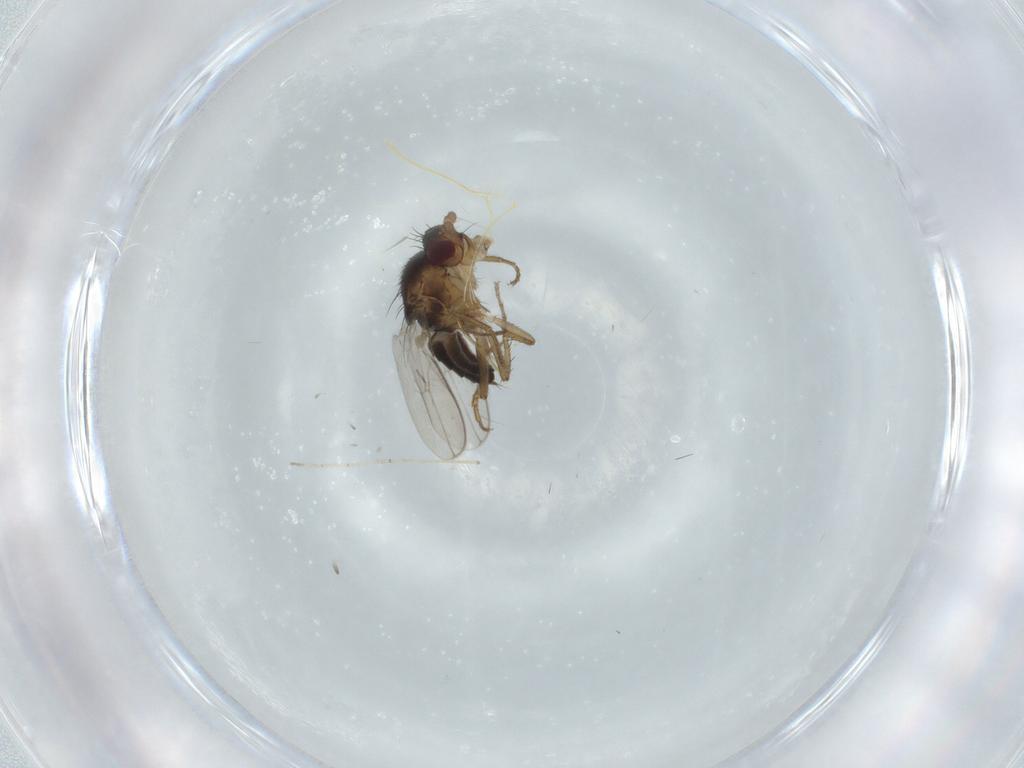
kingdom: Animalia
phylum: Arthropoda
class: Insecta
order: Diptera
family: Sphaeroceridae
